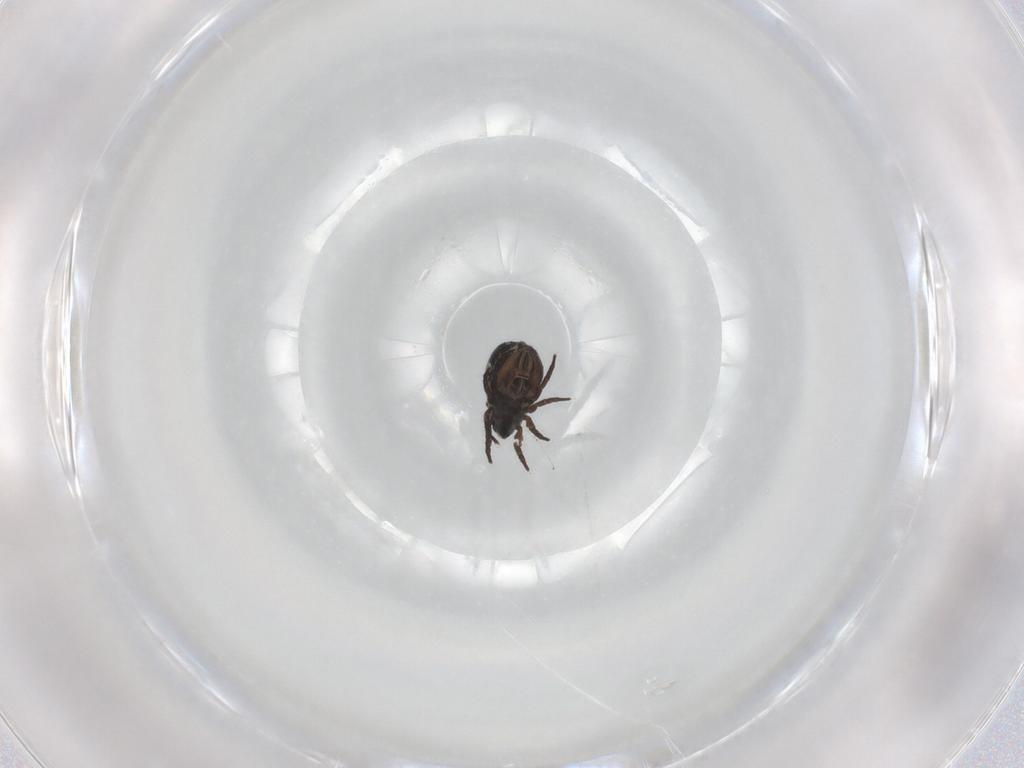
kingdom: Animalia
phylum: Arthropoda
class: Arachnida
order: Sarcoptiformes
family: Crotoniidae
